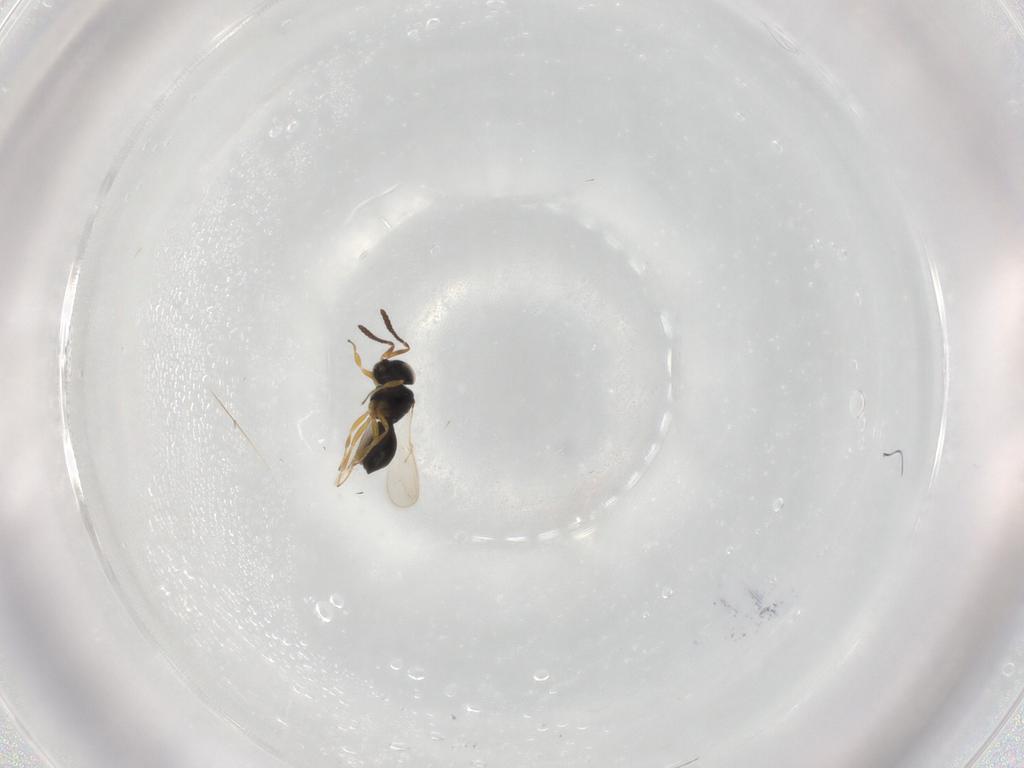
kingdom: Animalia
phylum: Arthropoda
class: Insecta
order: Hymenoptera
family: Scelionidae
